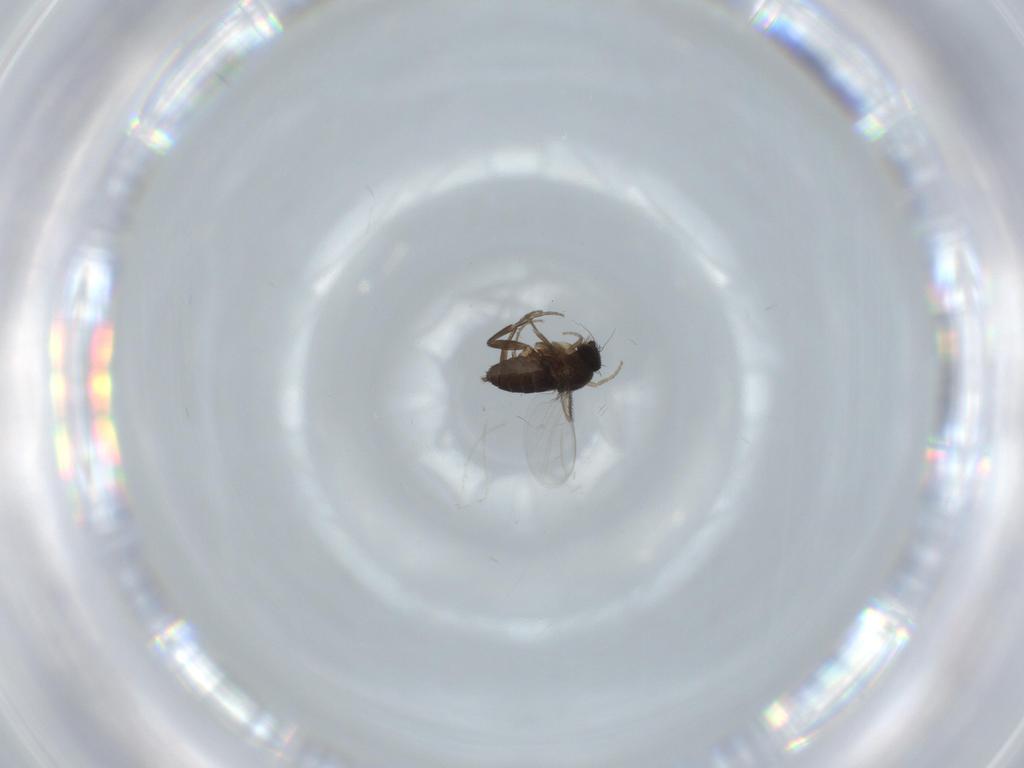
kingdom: Animalia
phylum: Arthropoda
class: Insecta
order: Diptera
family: Phoridae
